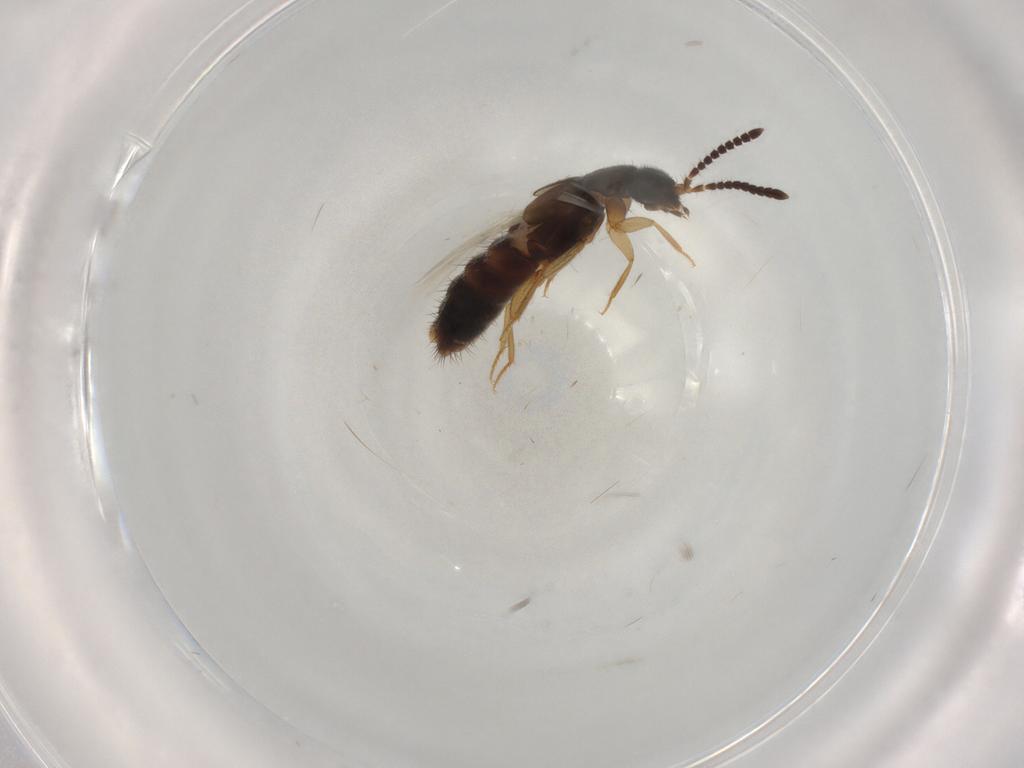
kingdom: Animalia
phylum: Arthropoda
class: Insecta
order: Coleoptera
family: Staphylinidae
